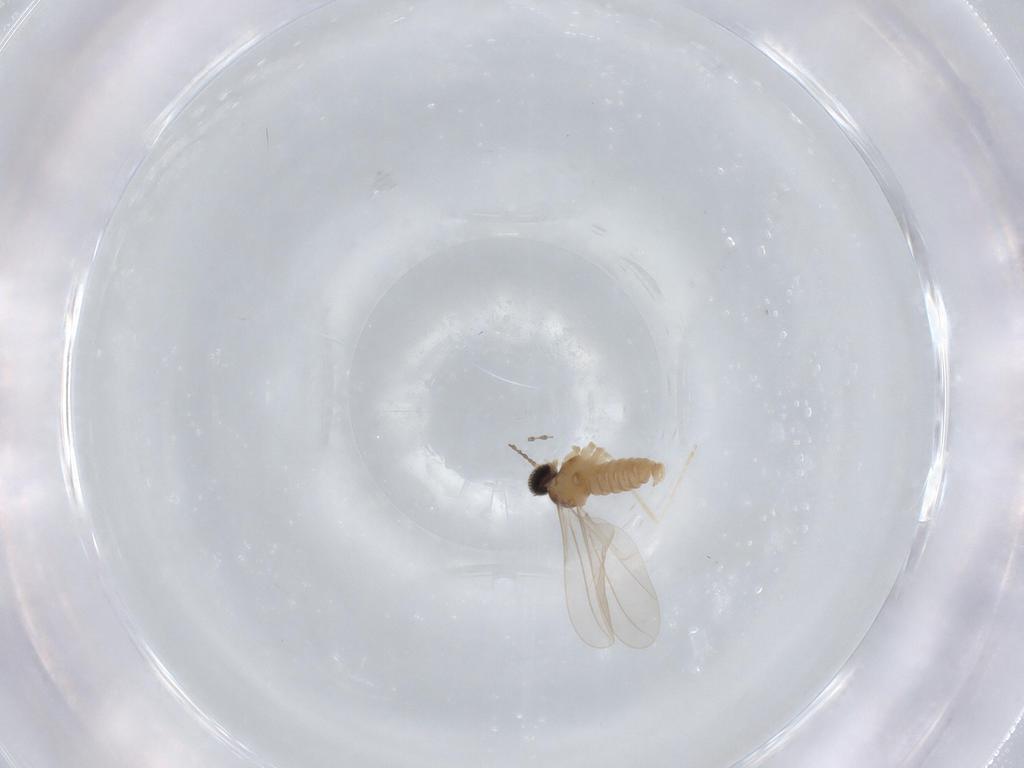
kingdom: Animalia
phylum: Arthropoda
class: Insecta
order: Diptera
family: Cecidomyiidae
